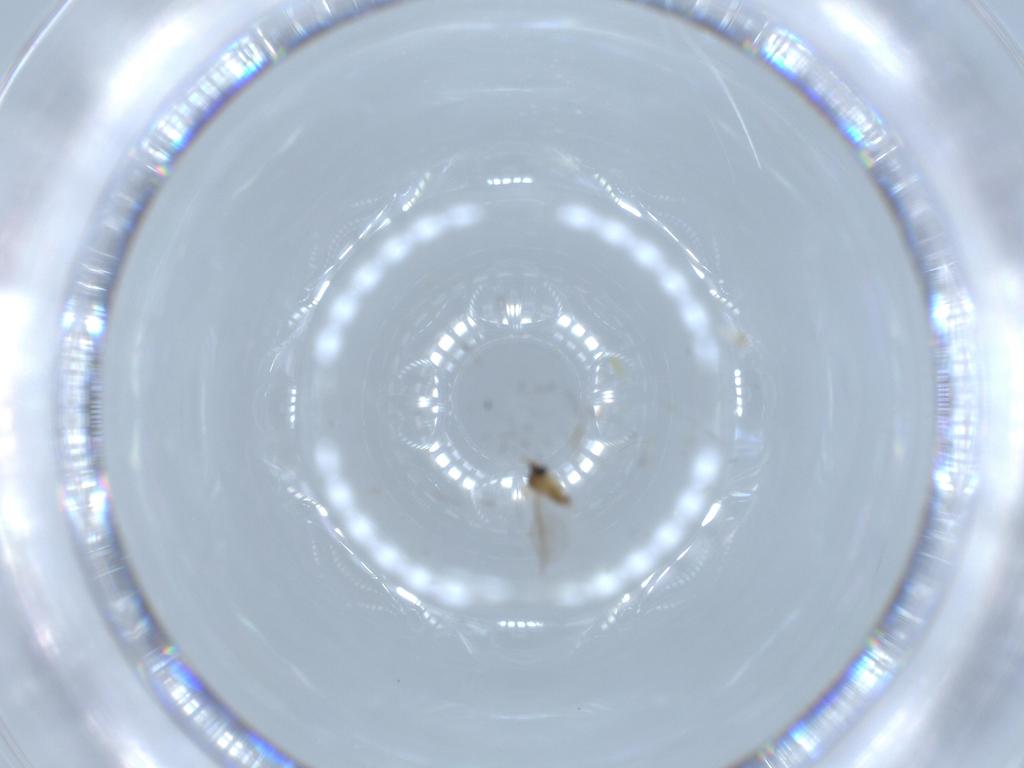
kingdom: Animalia
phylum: Arthropoda
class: Insecta
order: Diptera
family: Cecidomyiidae
